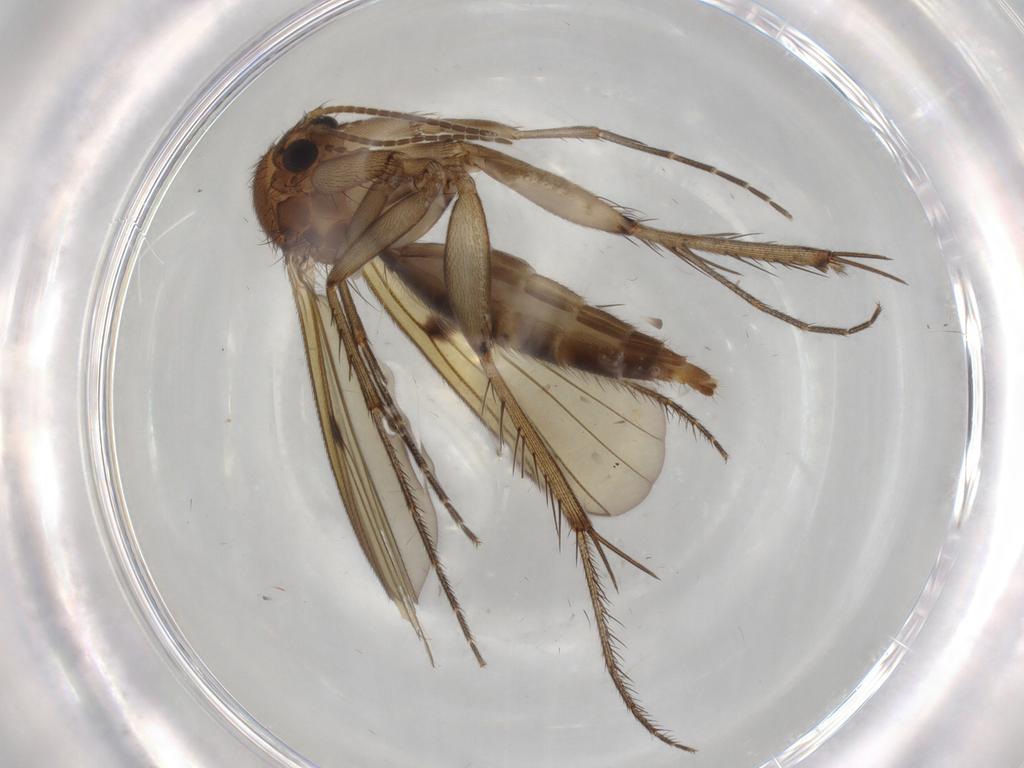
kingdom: Animalia
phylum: Arthropoda
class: Insecta
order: Diptera
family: Mycetophilidae
